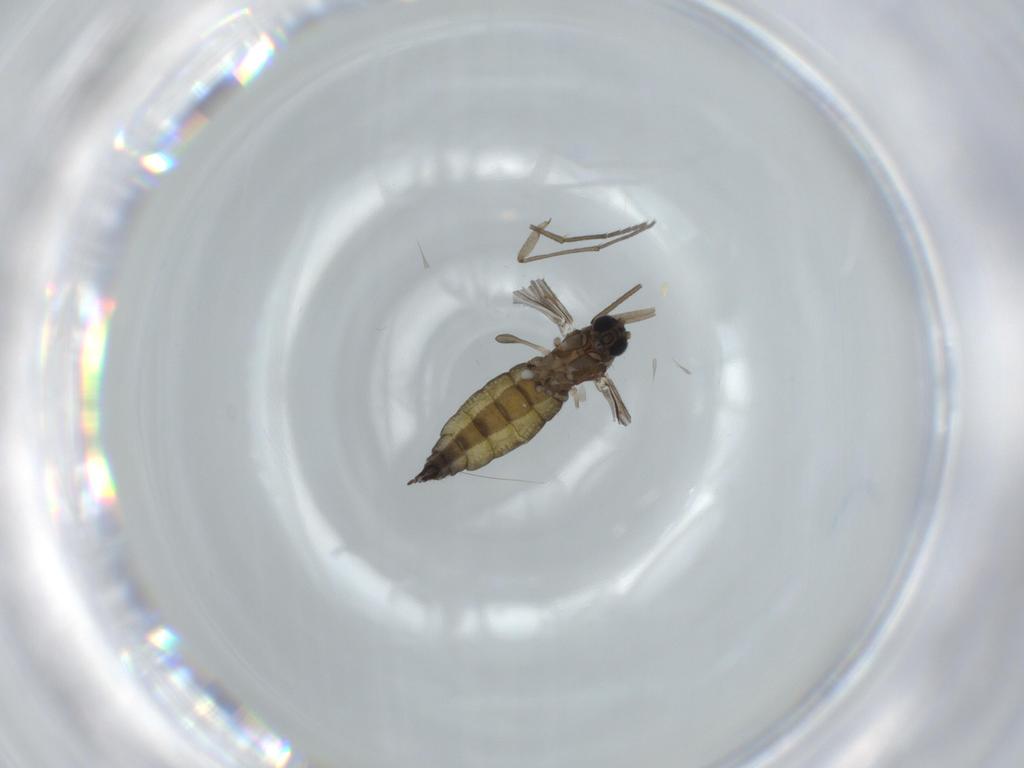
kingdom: Animalia
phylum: Arthropoda
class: Insecta
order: Diptera
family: Sciaridae
